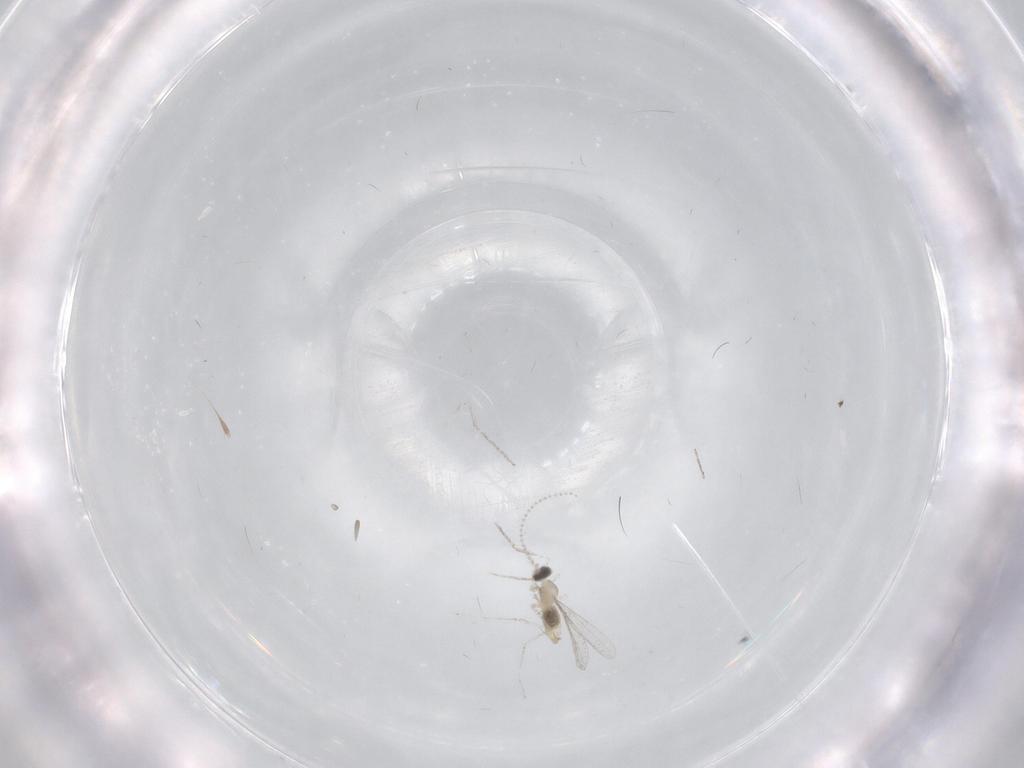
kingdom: Animalia
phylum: Arthropoda
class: Insecta
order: Diptera
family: Cecidomyiidae
